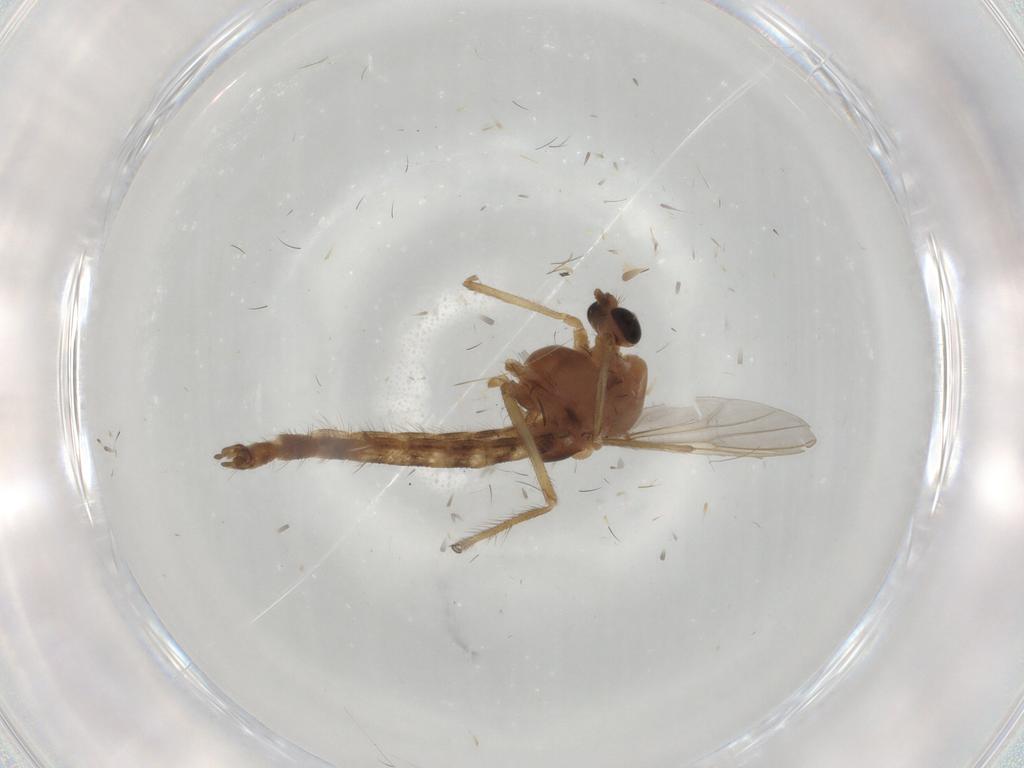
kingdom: Animalia
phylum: Arthropoda
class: Insecta
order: Diptera
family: Chironomidae
